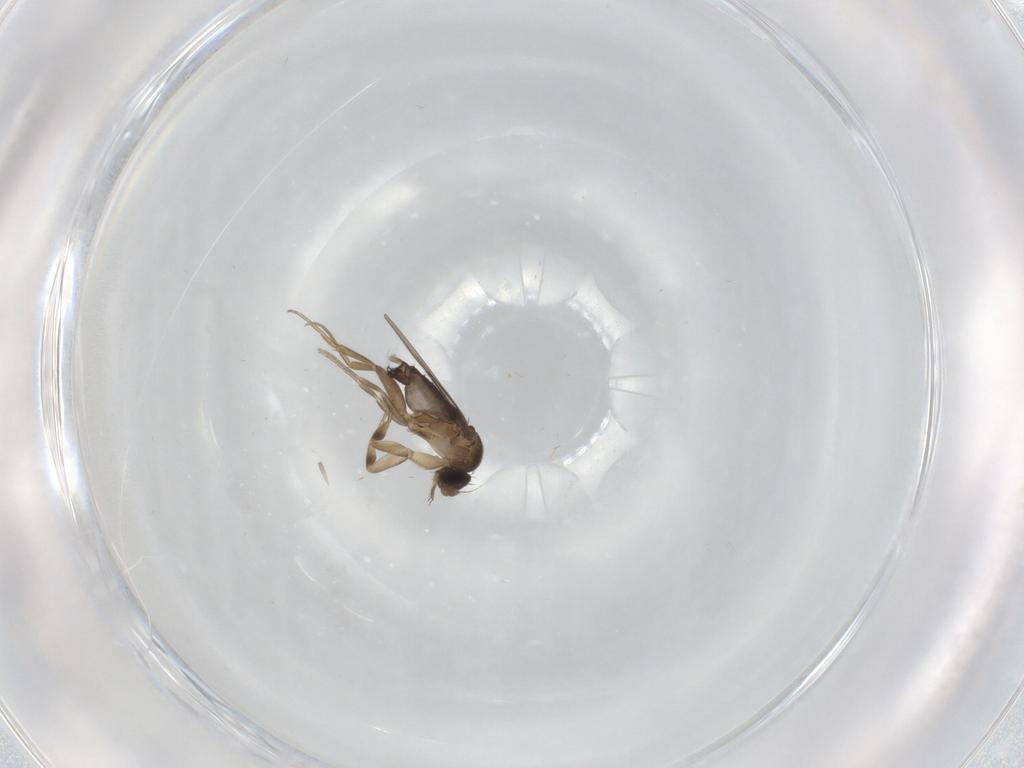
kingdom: Animalia
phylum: Arthropoda
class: Insecta
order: Diptera
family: Phoridae
